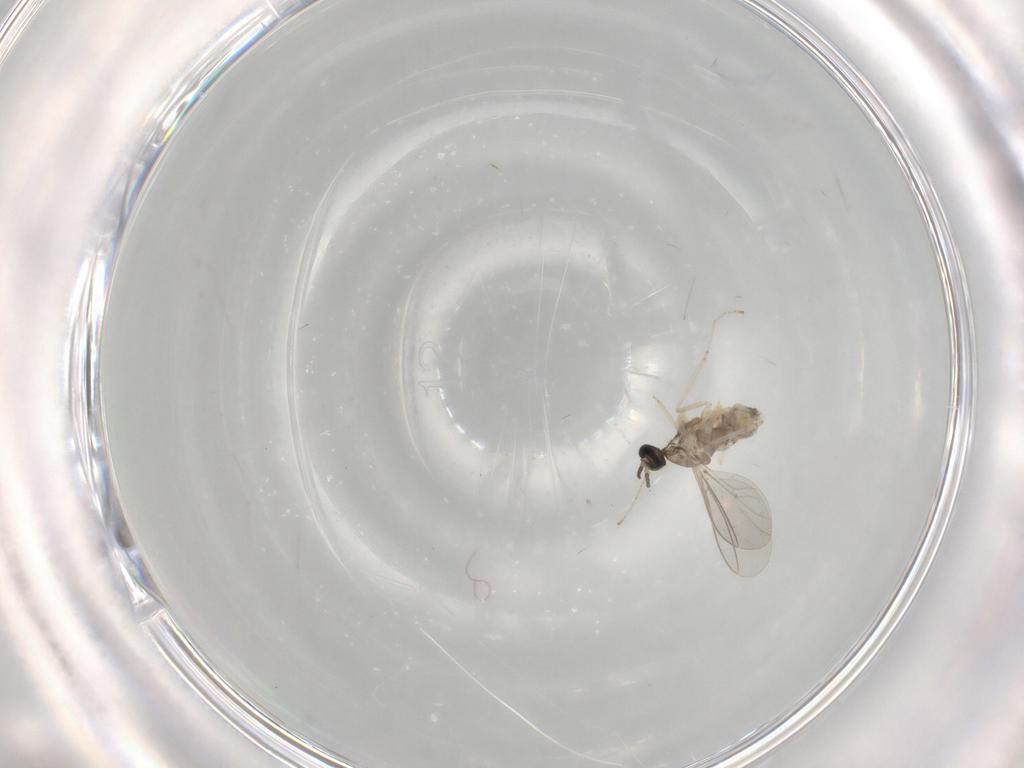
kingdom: Animalia
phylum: Arthropoda
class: Insecta
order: Diptera
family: Cecidomyiidae
